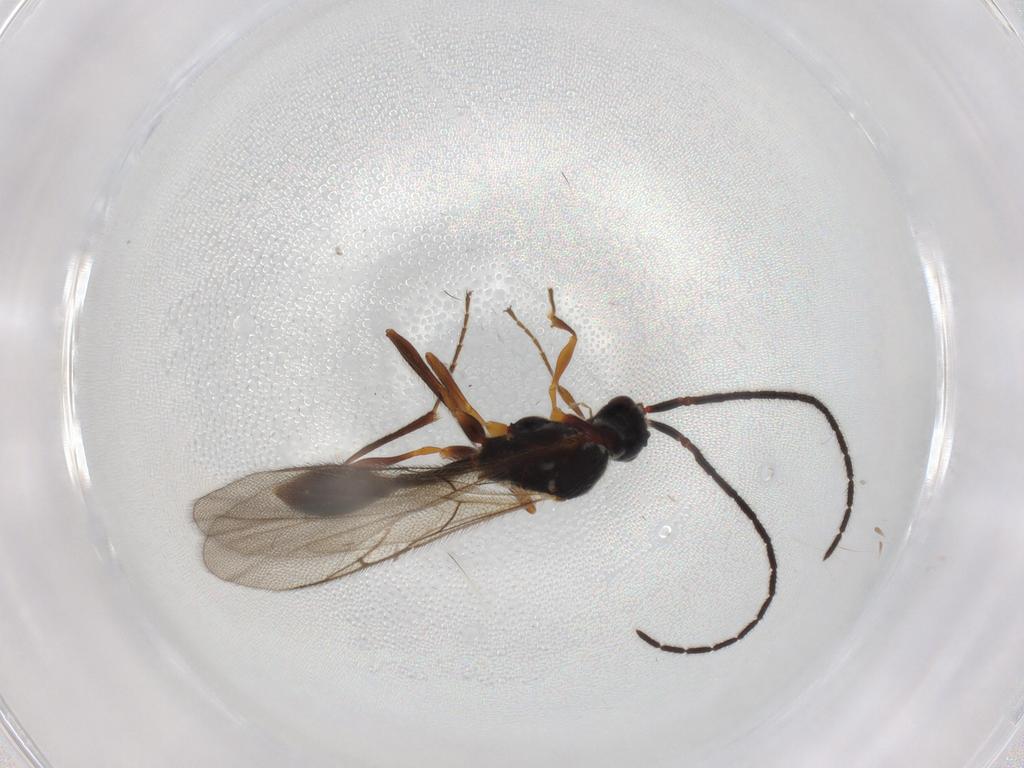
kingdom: Animalia
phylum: Arthropoda
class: Insecta
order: Hymenoptera
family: Diapriidae
